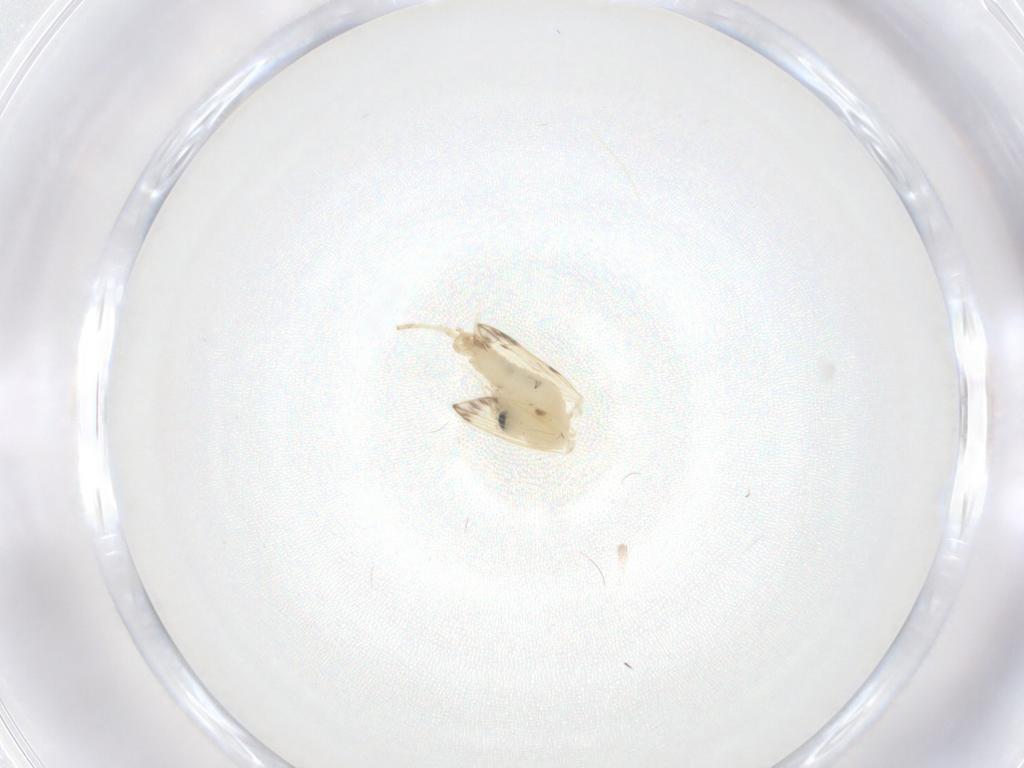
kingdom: Animalia
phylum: Arthropoda
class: Insecta
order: Diptera
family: Psychodidae
